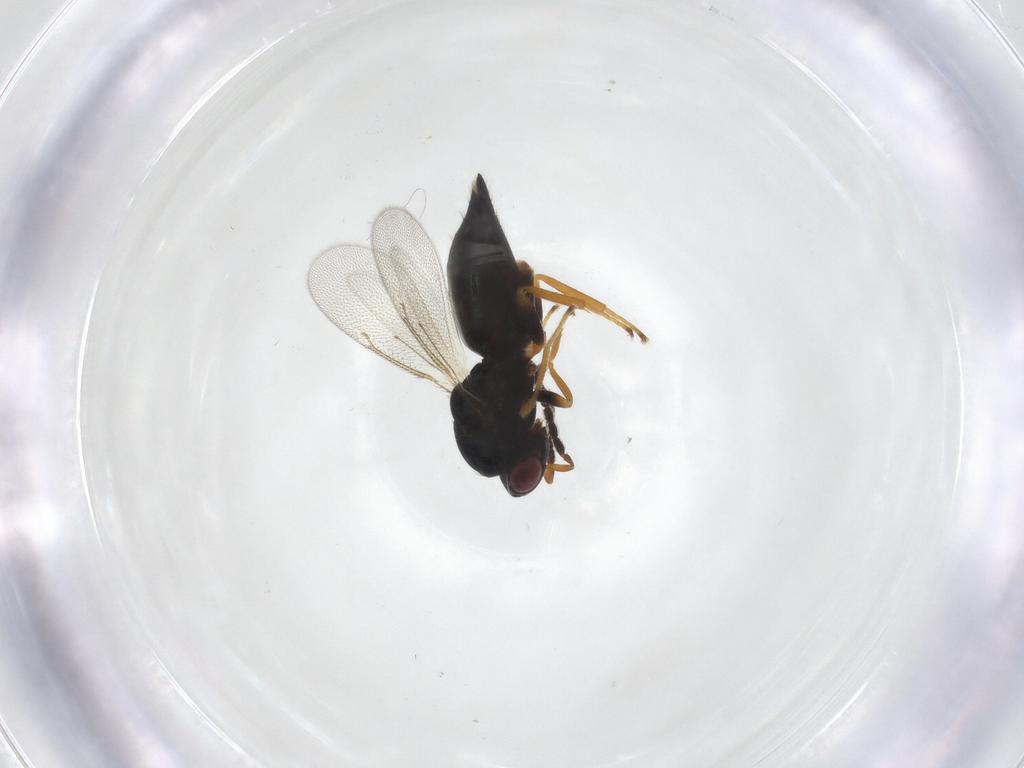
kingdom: Animalia
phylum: Arthropoda
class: Insecta
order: Hymenoptera
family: Eulophidae
